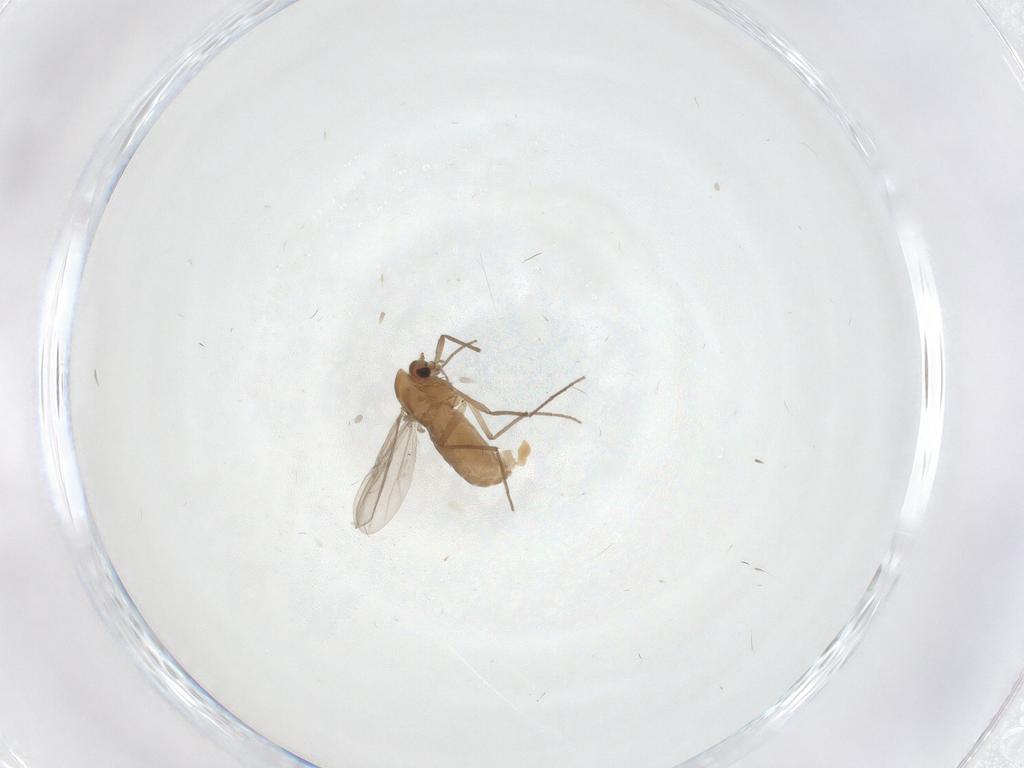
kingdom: Animalia
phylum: Arthropoda
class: Insecta
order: Diptera
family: Chironomidae
